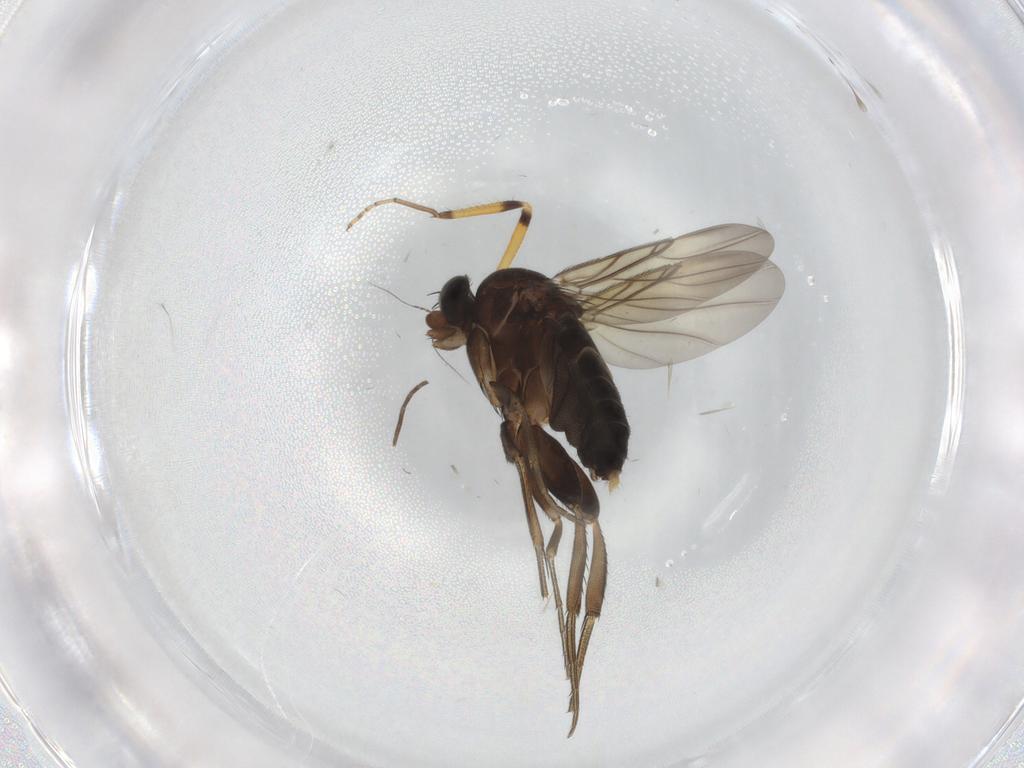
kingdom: Animalia
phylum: Arthropoda
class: Insecta
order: Diptera
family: Phoridae
